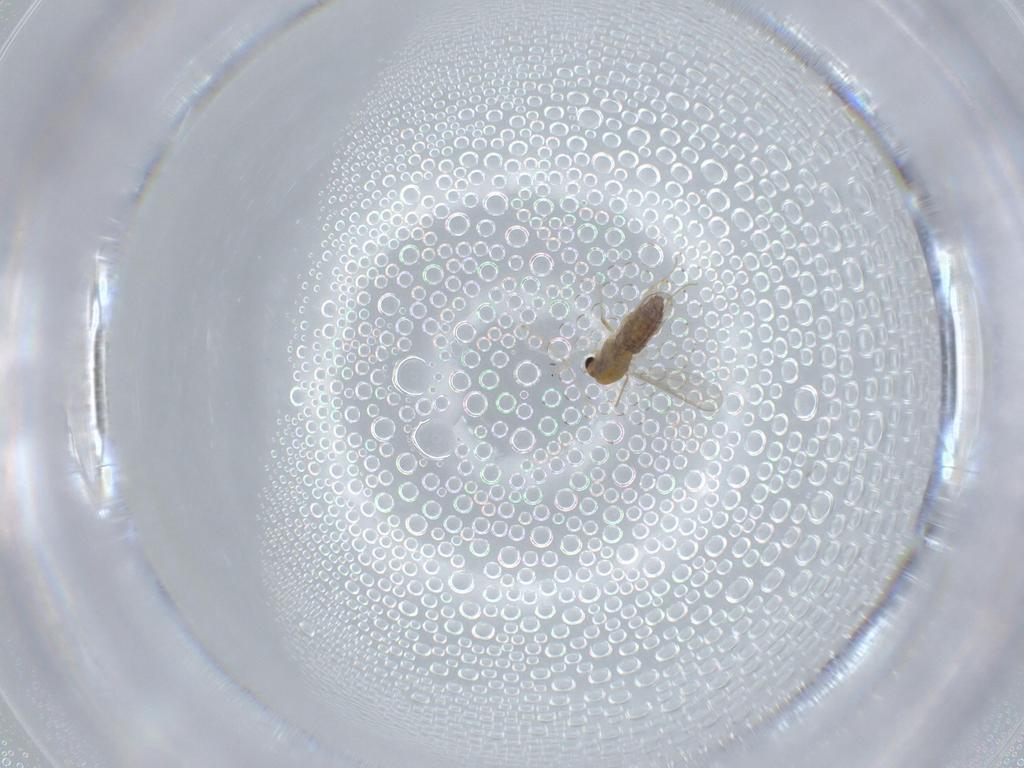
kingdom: Animalia
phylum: Arthropoda
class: Insecta
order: Diptera
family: Chironomidae
